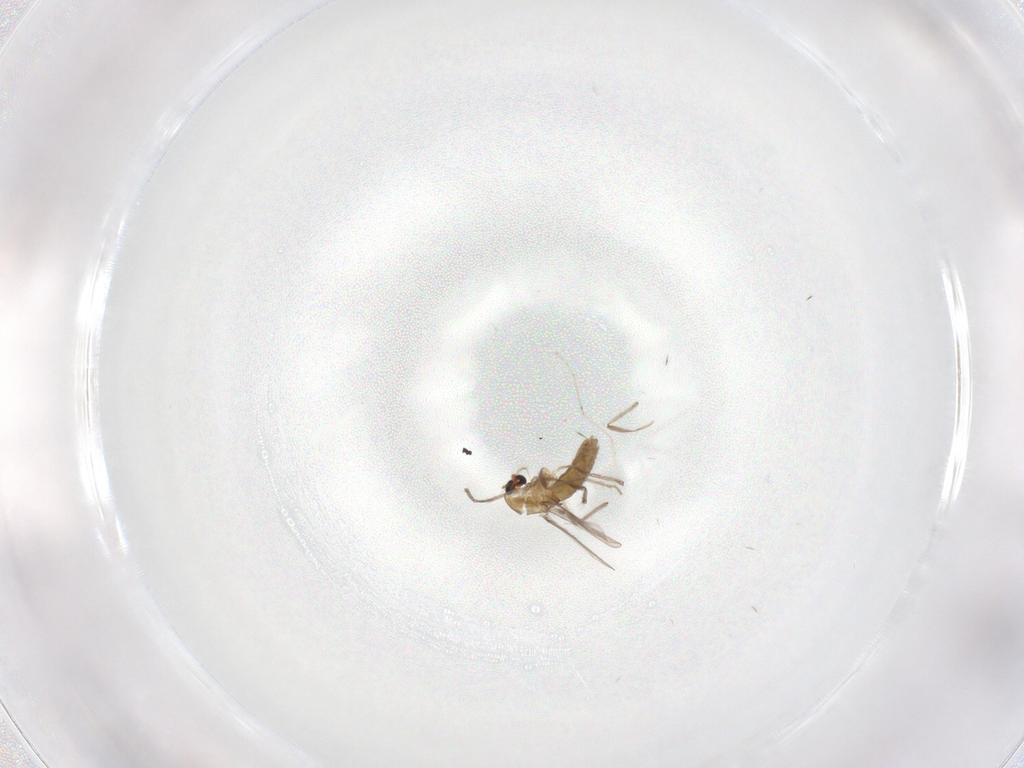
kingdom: Animalia
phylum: Arthropoda
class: Insecta
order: Diptera
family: Chironomidae
